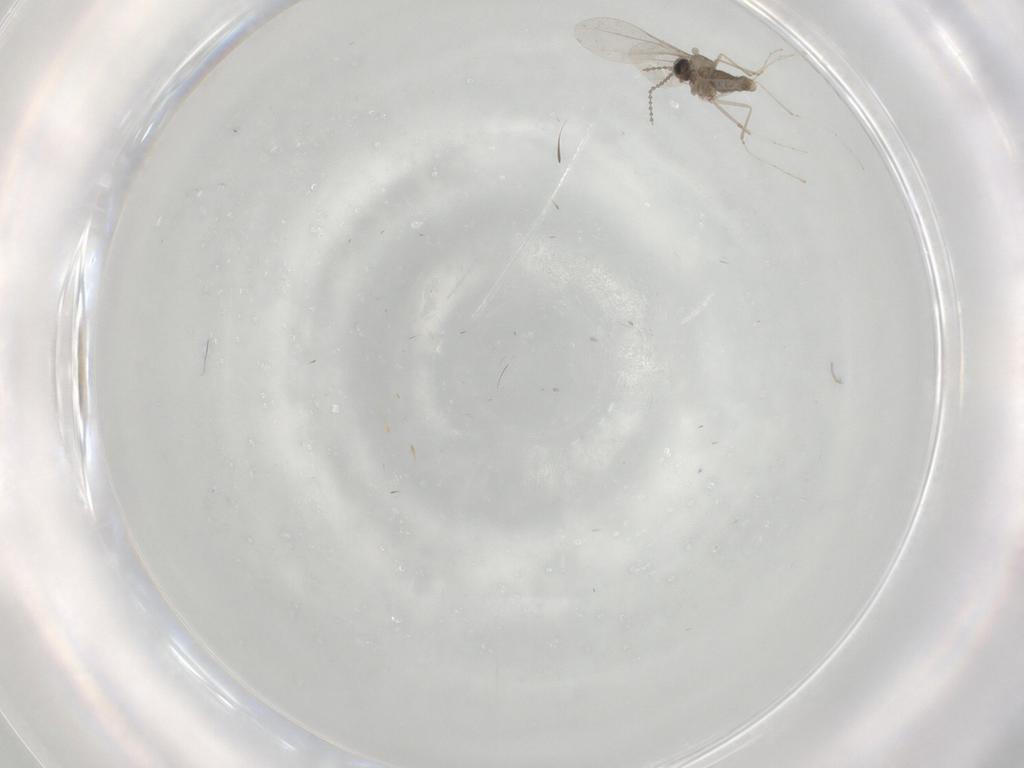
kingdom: Animalia
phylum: Arthropoda
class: Insecta
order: Diptera
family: Cecidomyiidae
